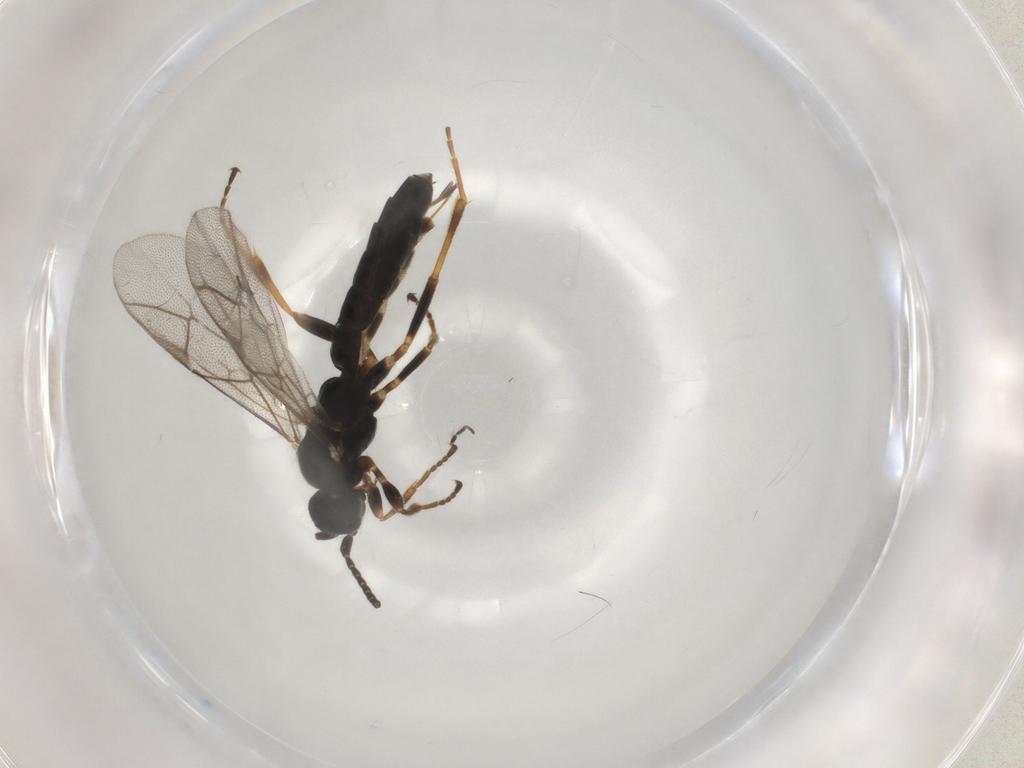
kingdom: Animalia
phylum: Arthropoda
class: Insecta
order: Hymenoptera
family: Ichneumonidae
